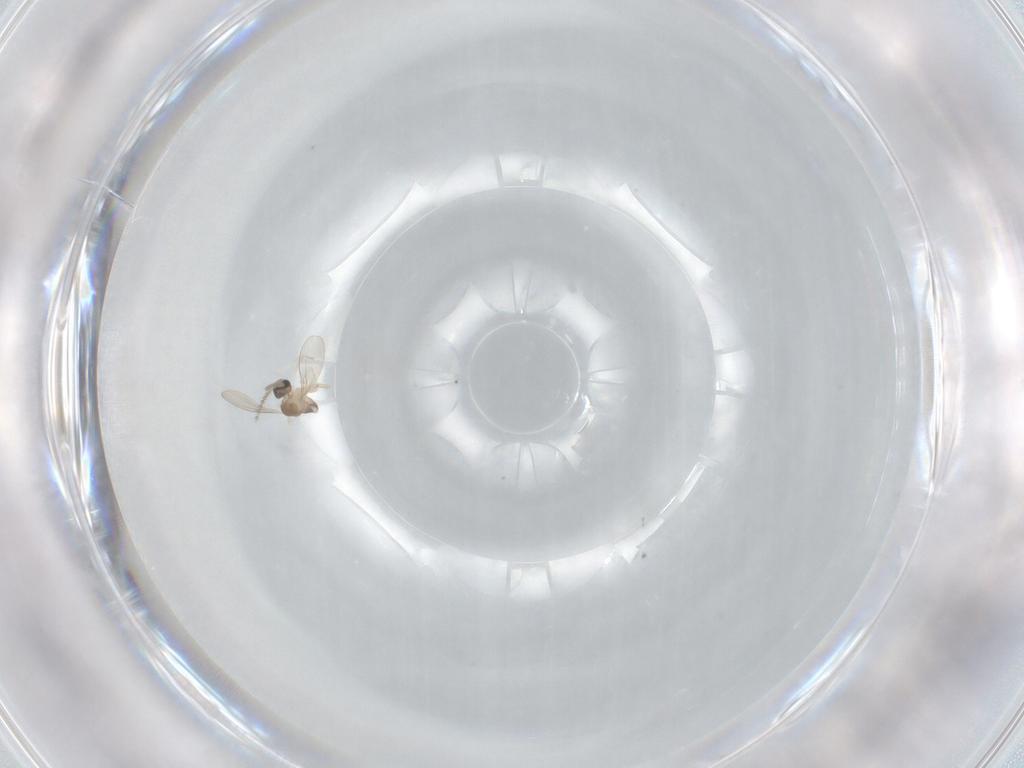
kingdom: Animalia
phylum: Arthropoda
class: Insecta
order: Diptera
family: Cecidomyiidae
